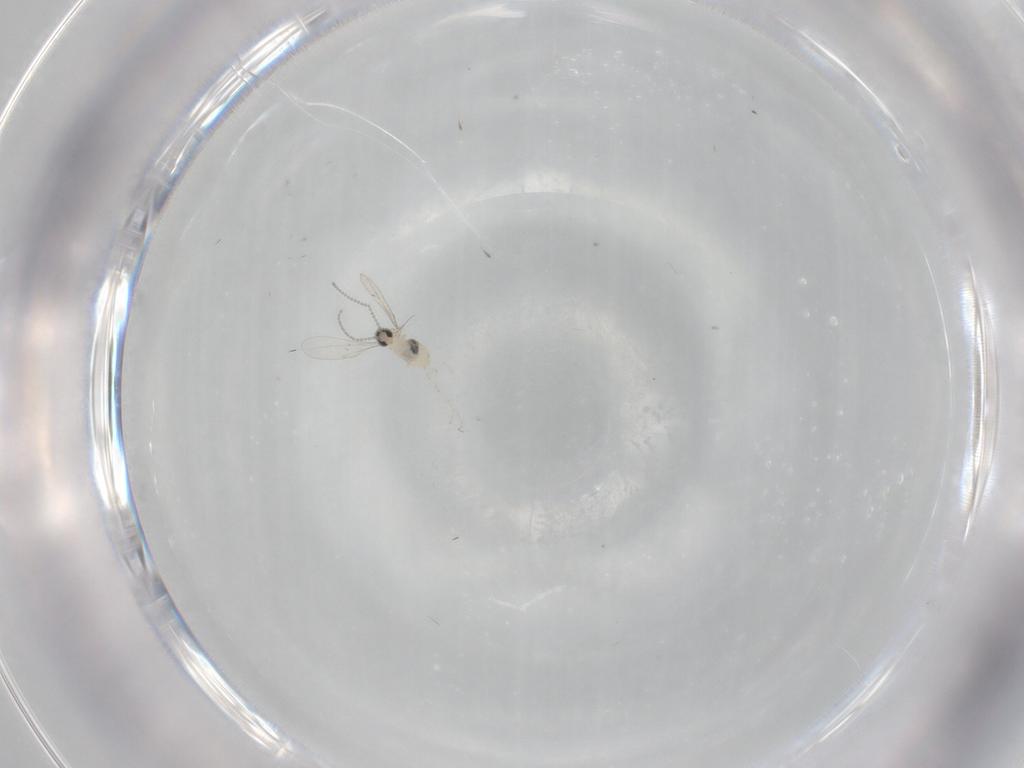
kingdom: Animalia
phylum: Arthropoda
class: Insecta
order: Diptera
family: Cecidomyiidae
